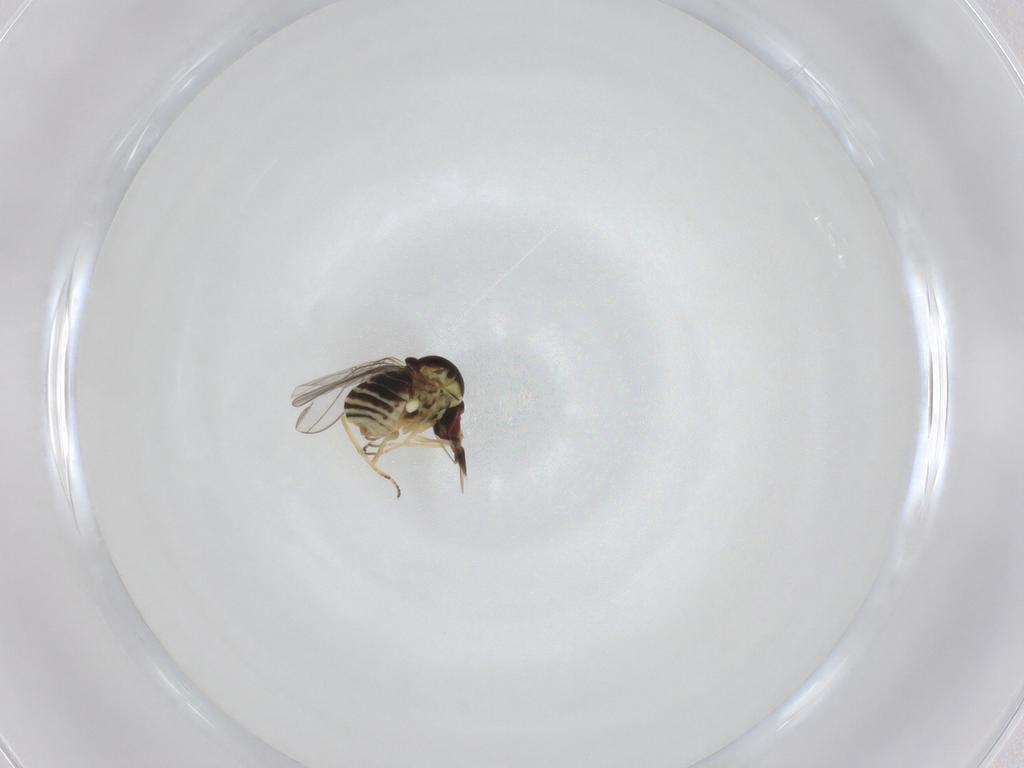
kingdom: Animalia
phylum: Arthropoda
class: Insecta
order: Diptera
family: Mythicomyiidae
